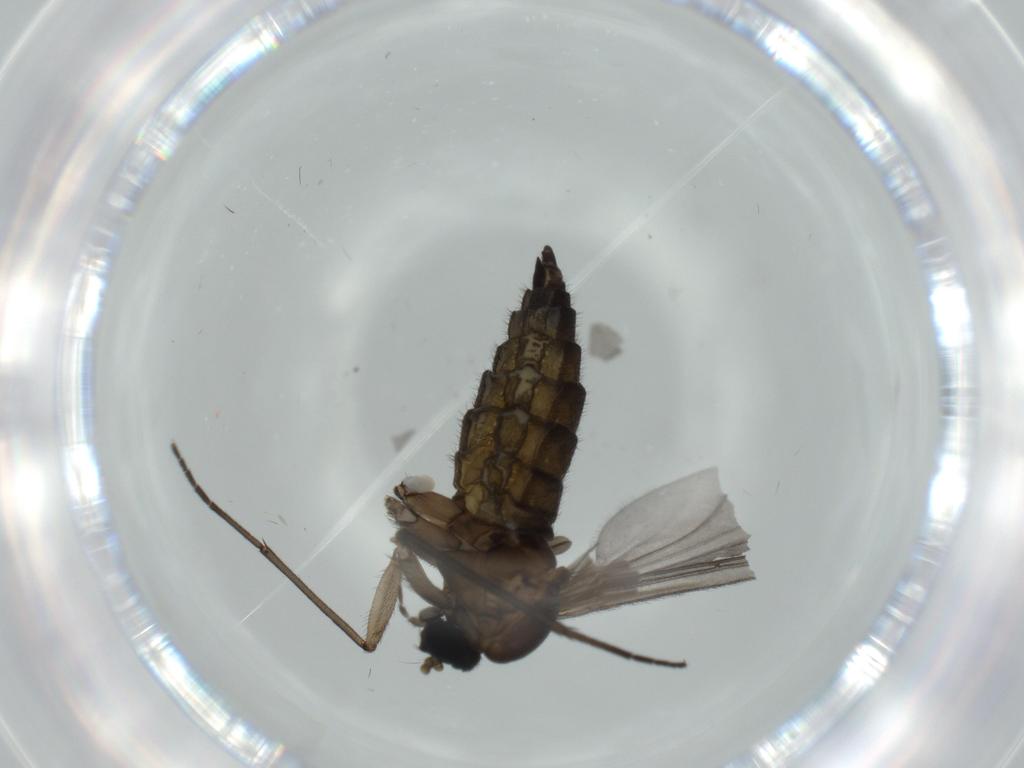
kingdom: Animalia
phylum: Arthropoda
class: Insecta
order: Diptera
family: Sciaridae
